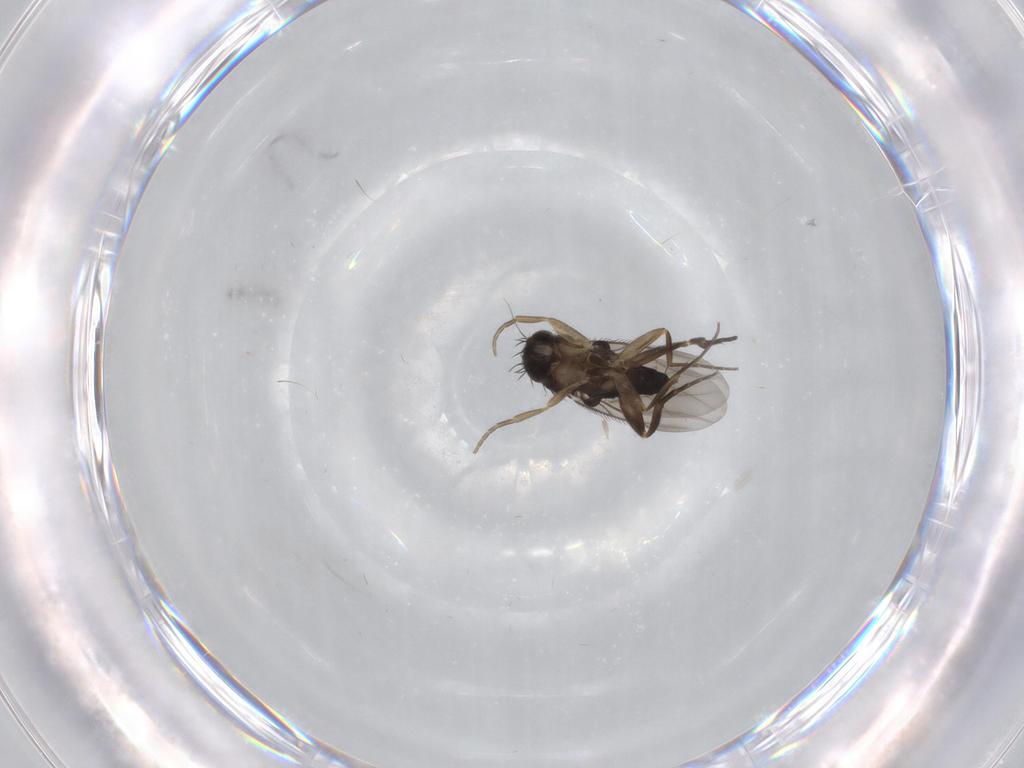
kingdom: Animalia
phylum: Arthropoda
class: Insecta
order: Diptera
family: Phoridae
